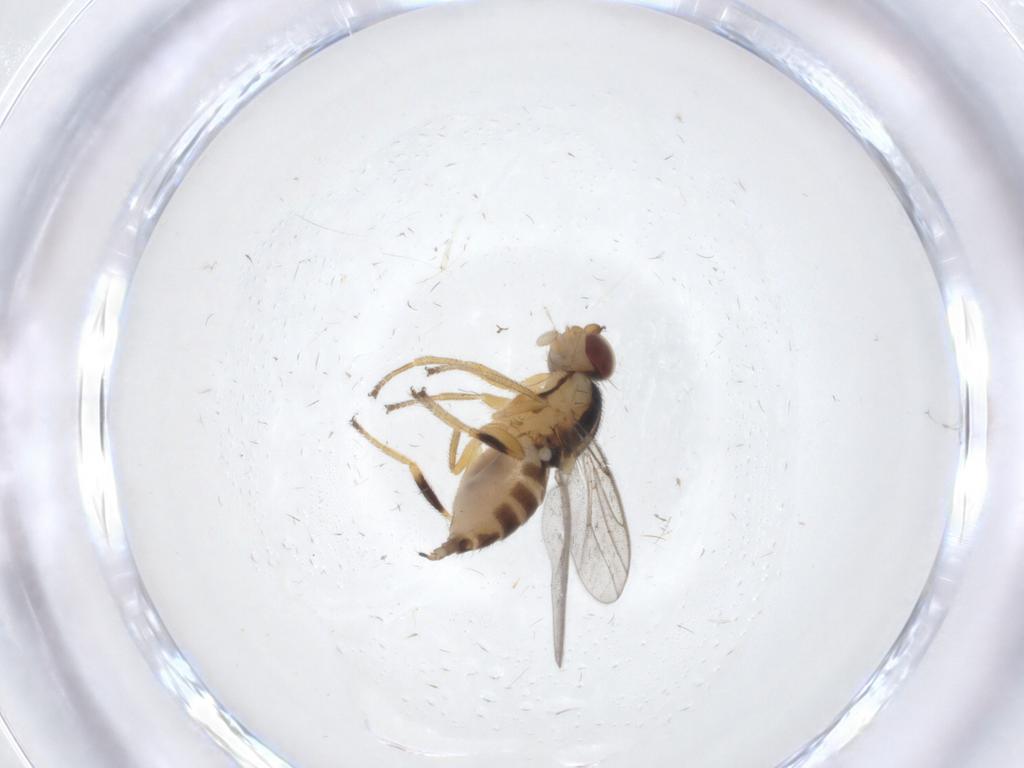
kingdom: Animalia
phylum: Arthropoda
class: Insecta
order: Diptera
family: Chloropidae
